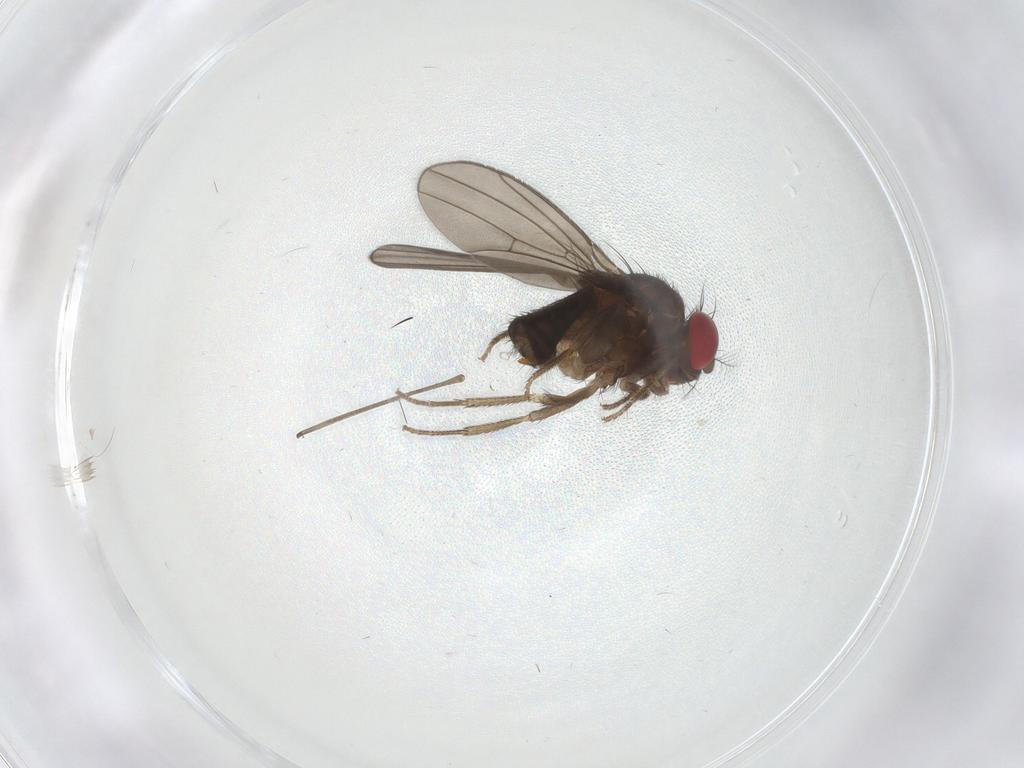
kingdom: Animalia
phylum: Arthropoda
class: Insecta
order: Diptera
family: Drosophilidae
